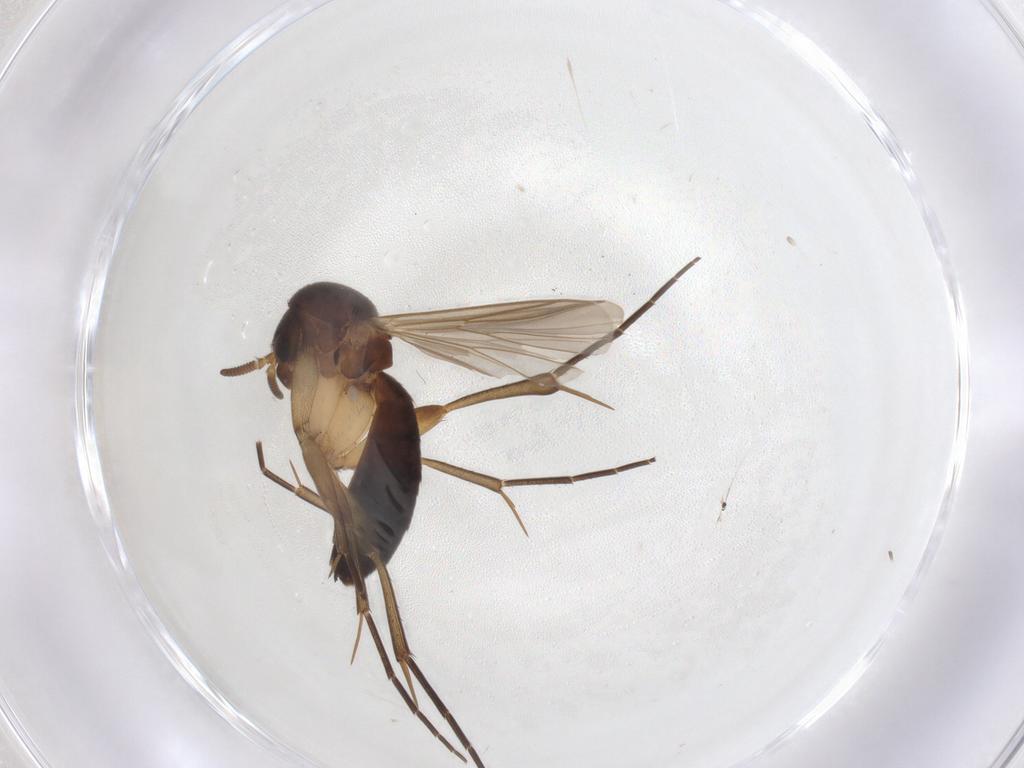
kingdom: Animalia
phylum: Arthropoda
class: Insecta
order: Diptera
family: Mycetophilidae
